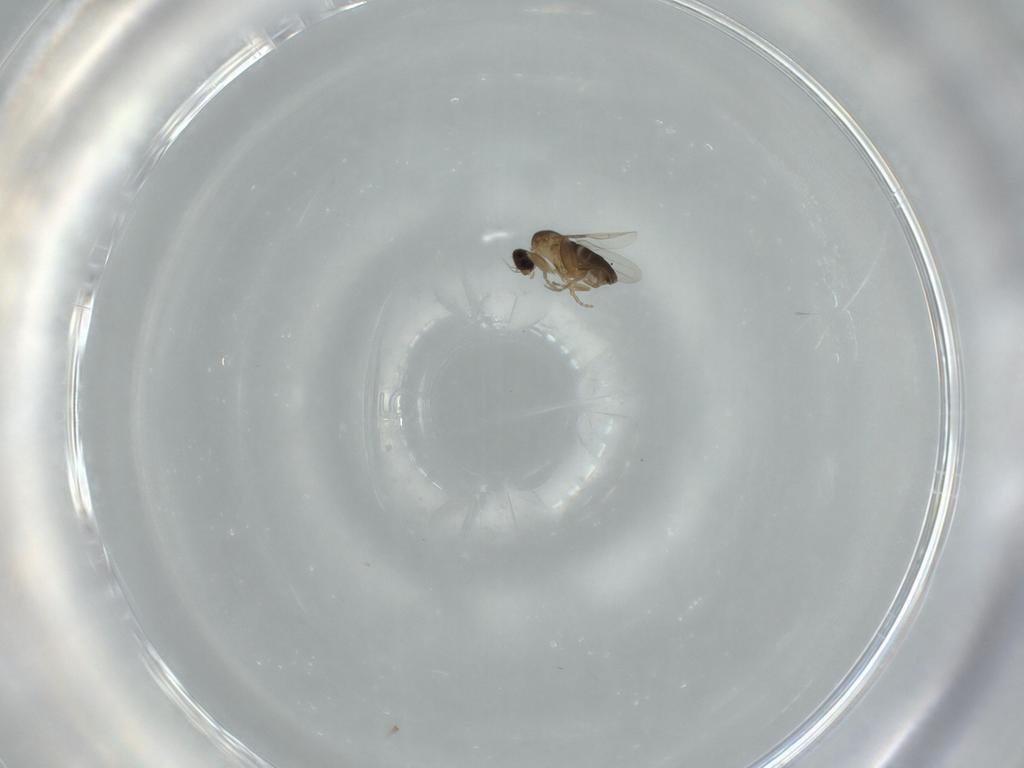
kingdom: Animalia
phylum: Arthropoda
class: Insecta
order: Diptera
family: Phoridae
